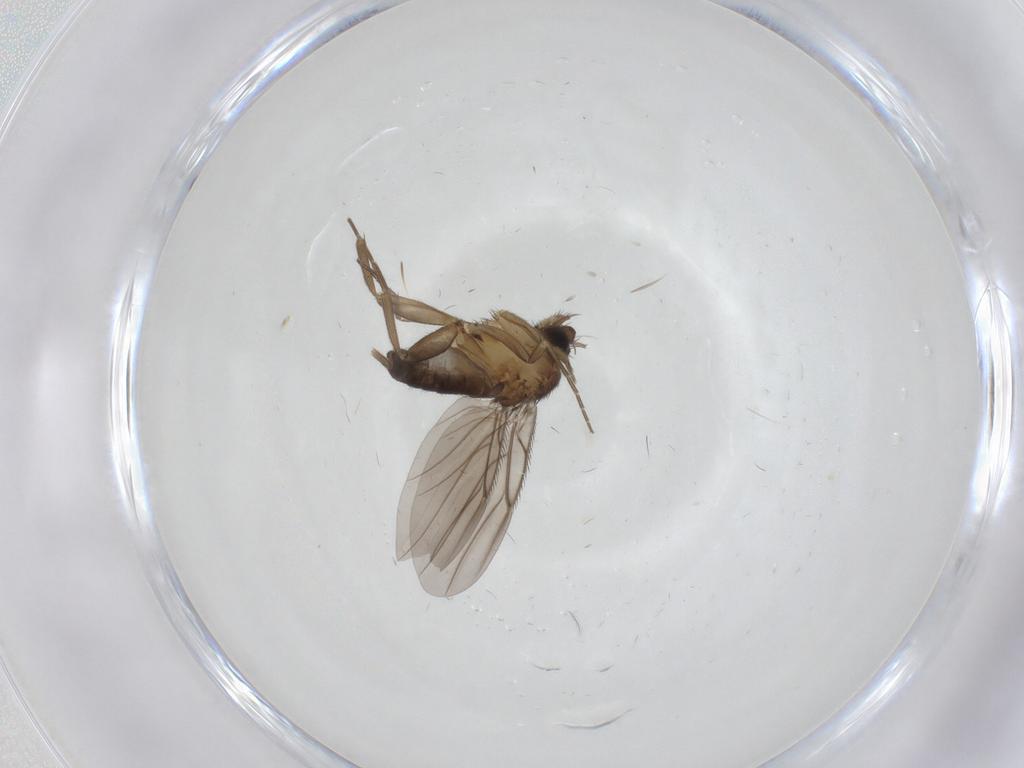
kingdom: Animalia
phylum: Arthropoda
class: Insecta
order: Diptera
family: Phoridae
